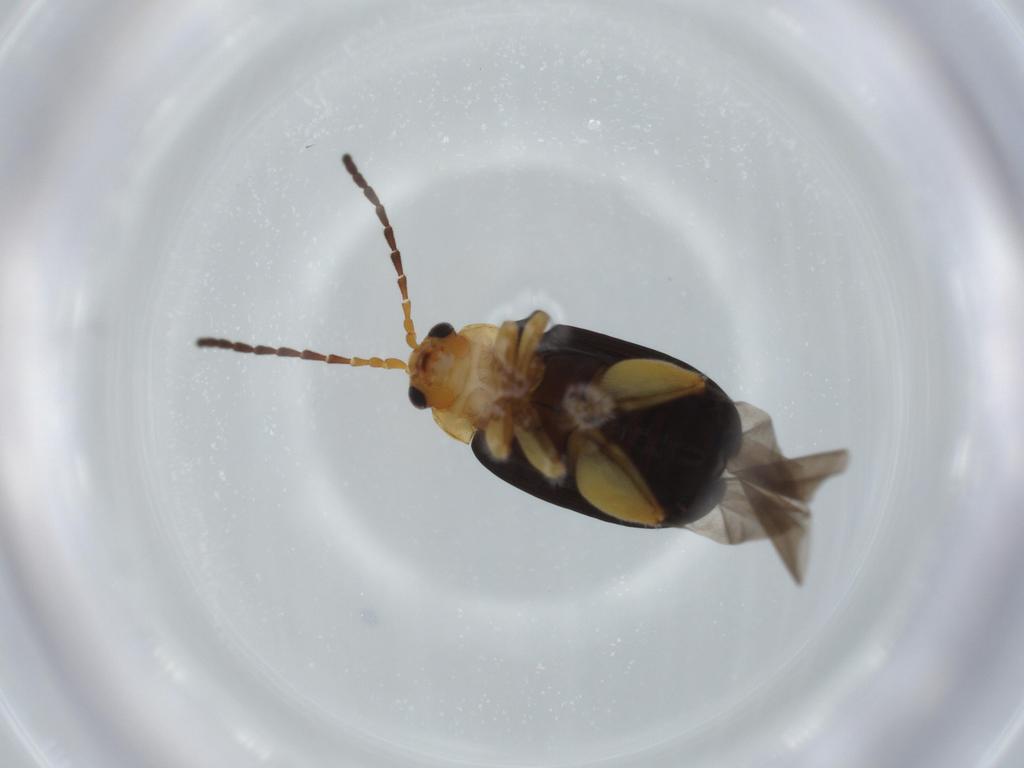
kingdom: Animalia
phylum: Arthropoda
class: Insecta
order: Coleoptera
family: Chrysomelidae
